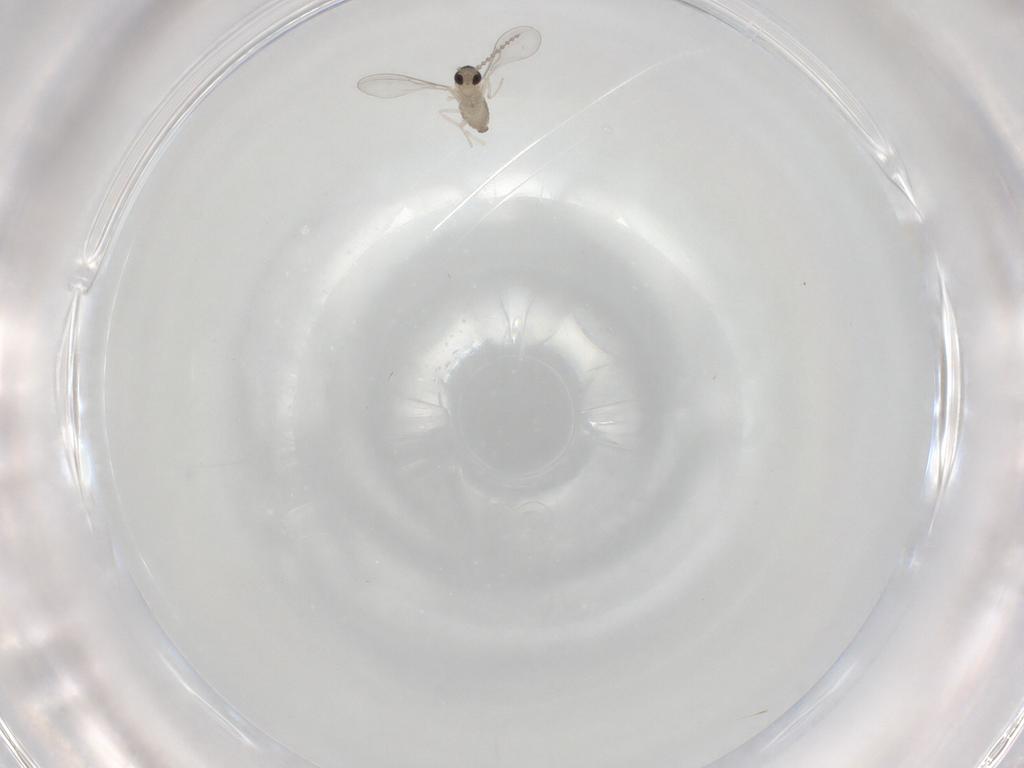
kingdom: Animalia
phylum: Arthropoda
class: Insecta
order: Diptera
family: Cecidomyiidae
